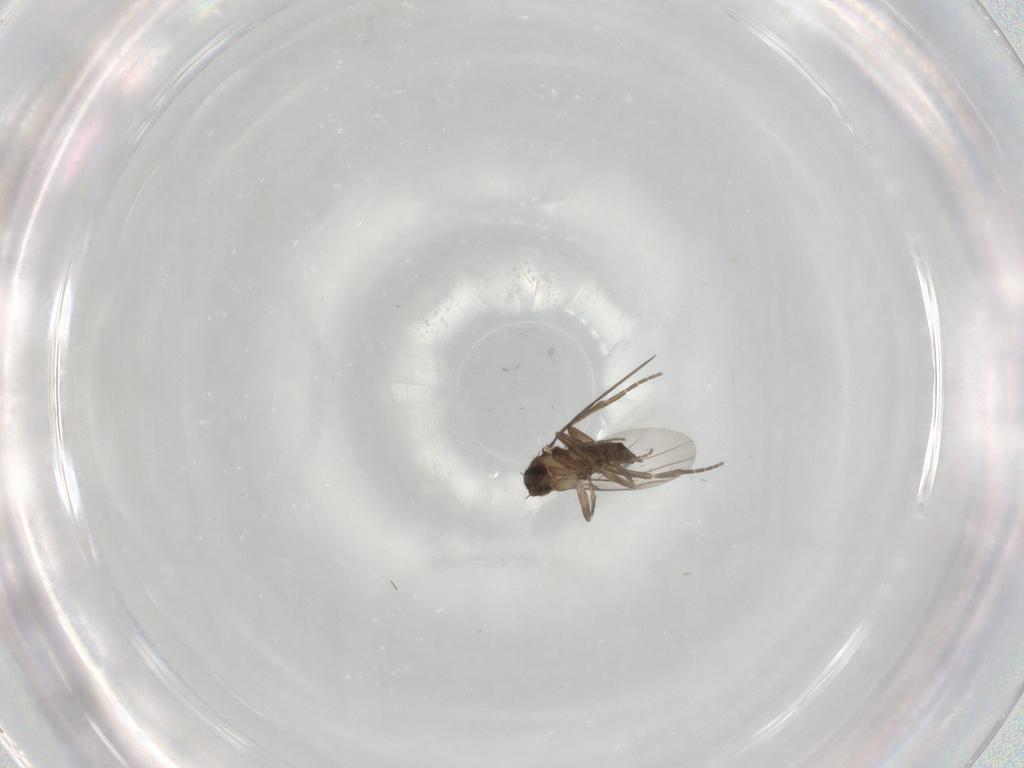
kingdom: Animalia
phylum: Arthropoda
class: Insecta
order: Diptera
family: Phoridae
